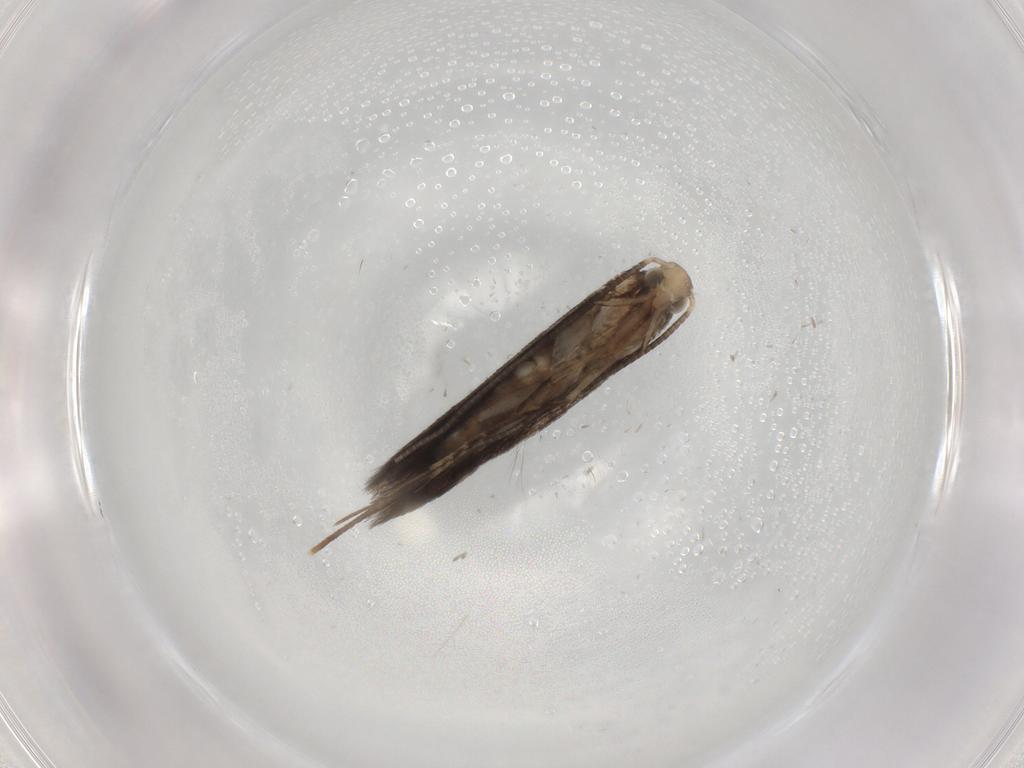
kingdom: Animalia
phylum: Arthropoda
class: Insecta
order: Lepidoptera
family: Gracillariidae
